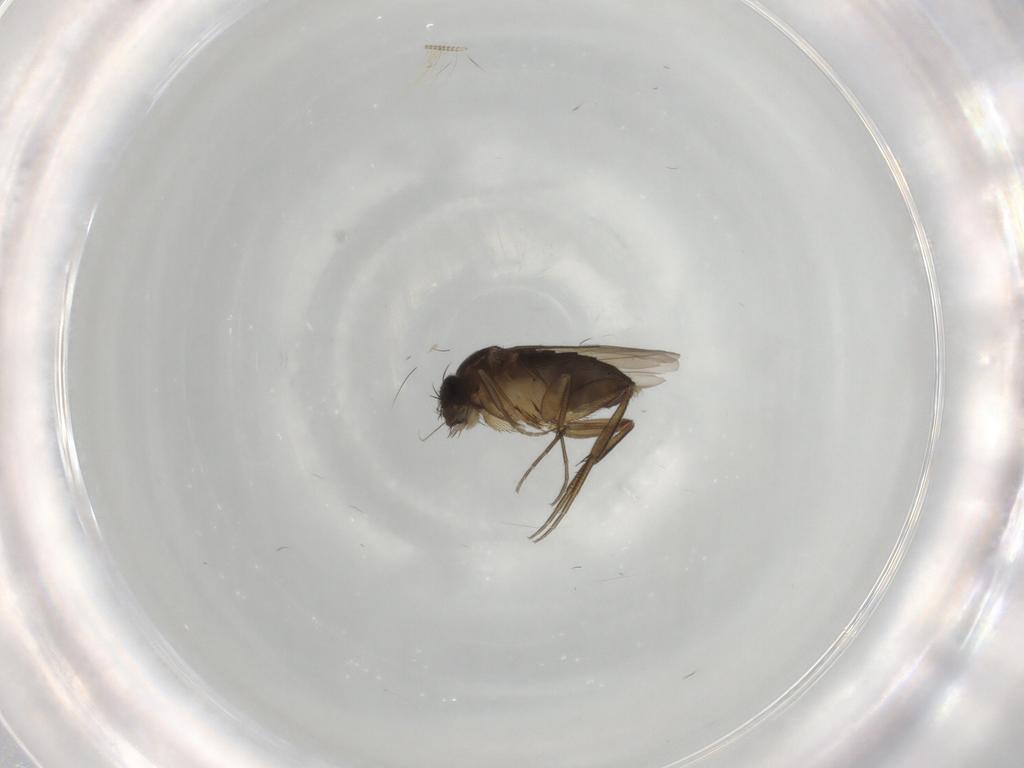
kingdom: Animalia
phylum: Arthropoda
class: Insecta
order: Diptera
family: Phoridae
